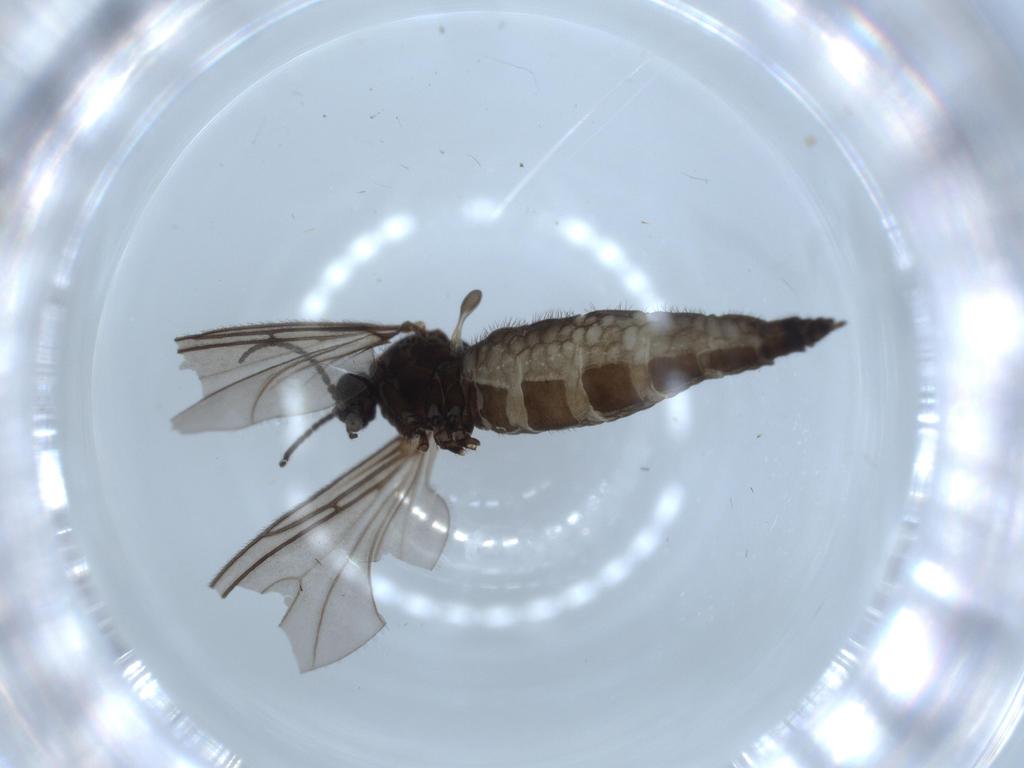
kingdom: Animalia
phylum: Arthropoda
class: Insecta
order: Diptera
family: Sciaridae
